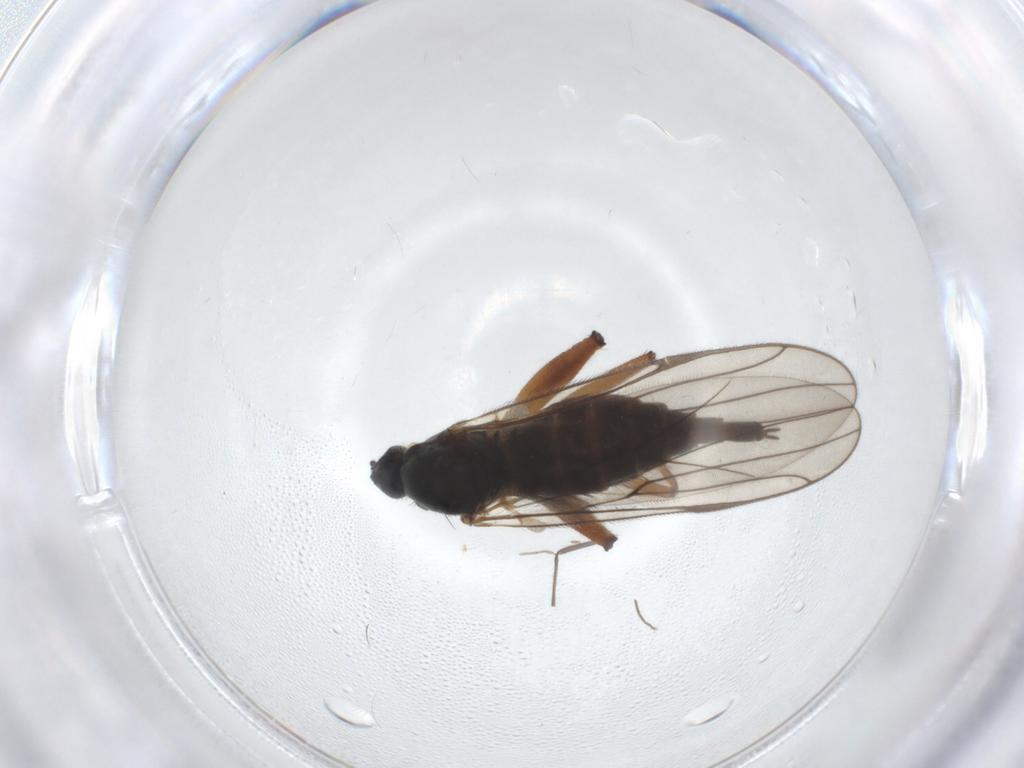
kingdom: Animalia
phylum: Arthropoda
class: Insecta
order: Diptera
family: Hybotidae
